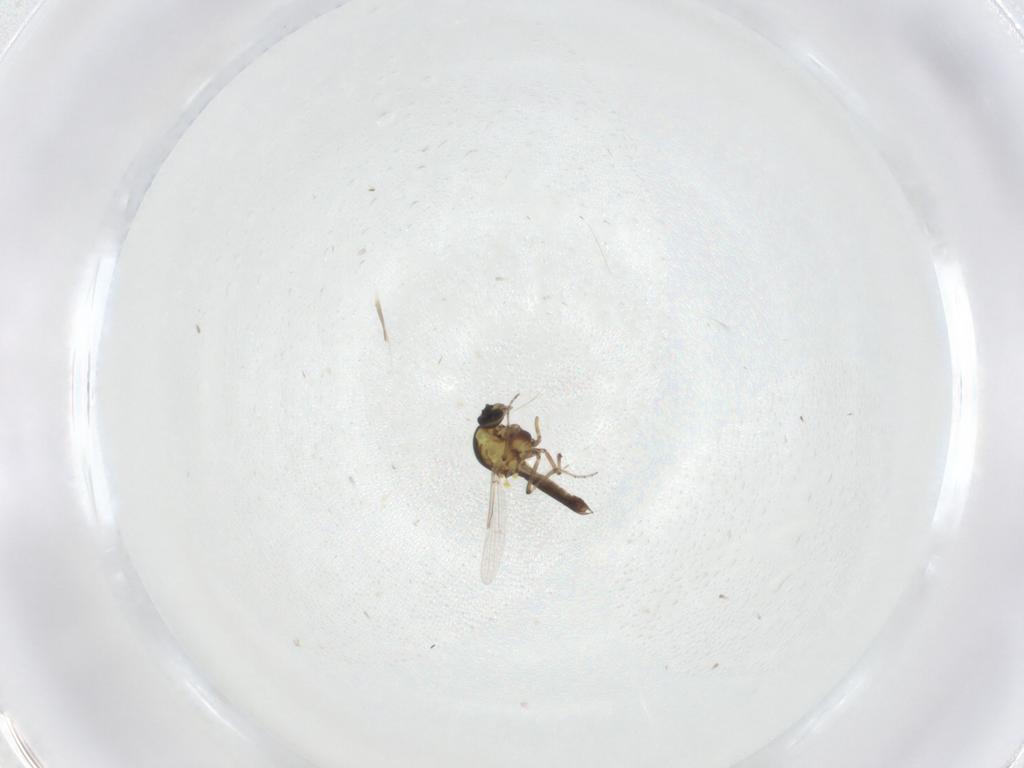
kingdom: Animalia
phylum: Arthropoda
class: Insecta
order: Diptera
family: Ceratopogonidae
